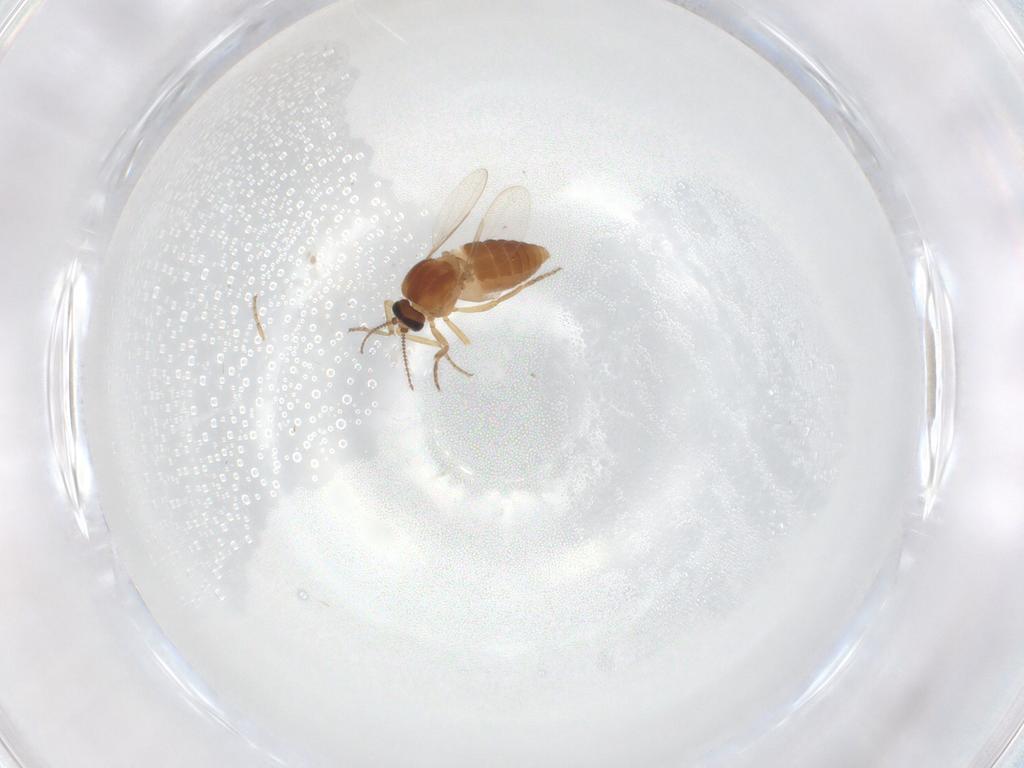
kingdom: Animalia
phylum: Arthropoda
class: Insecta
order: Diptera
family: Ceratopogonidae
